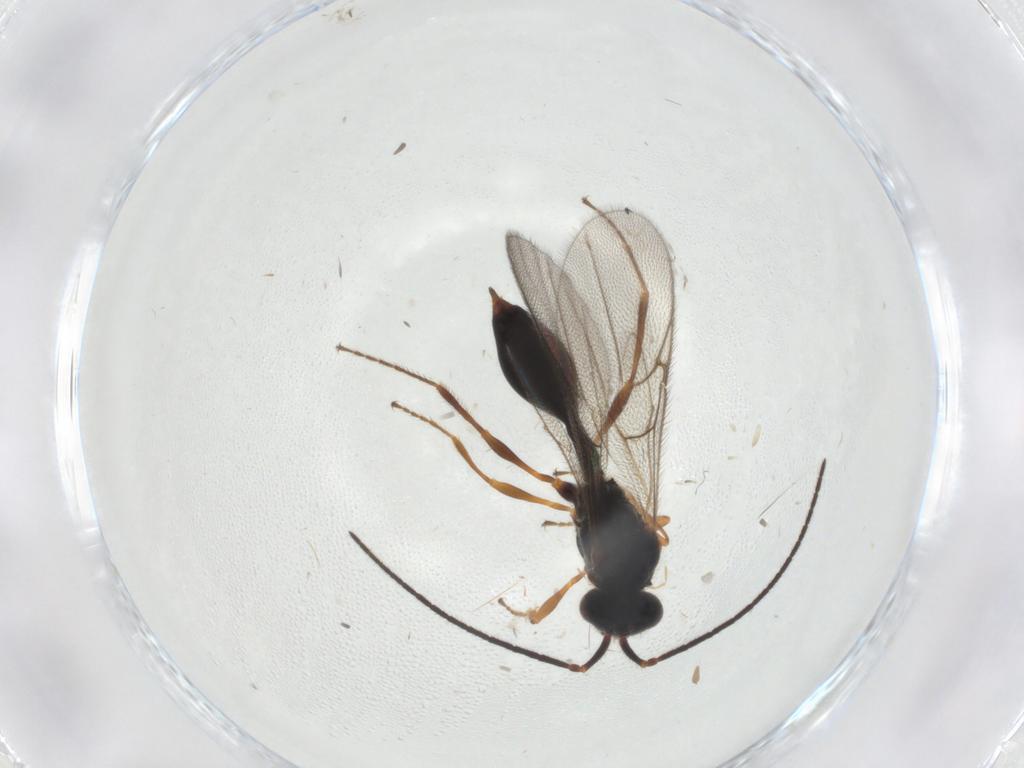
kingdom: Animalia
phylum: Arthropoda
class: Insecta
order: Hymenoptera
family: Diapriidae
